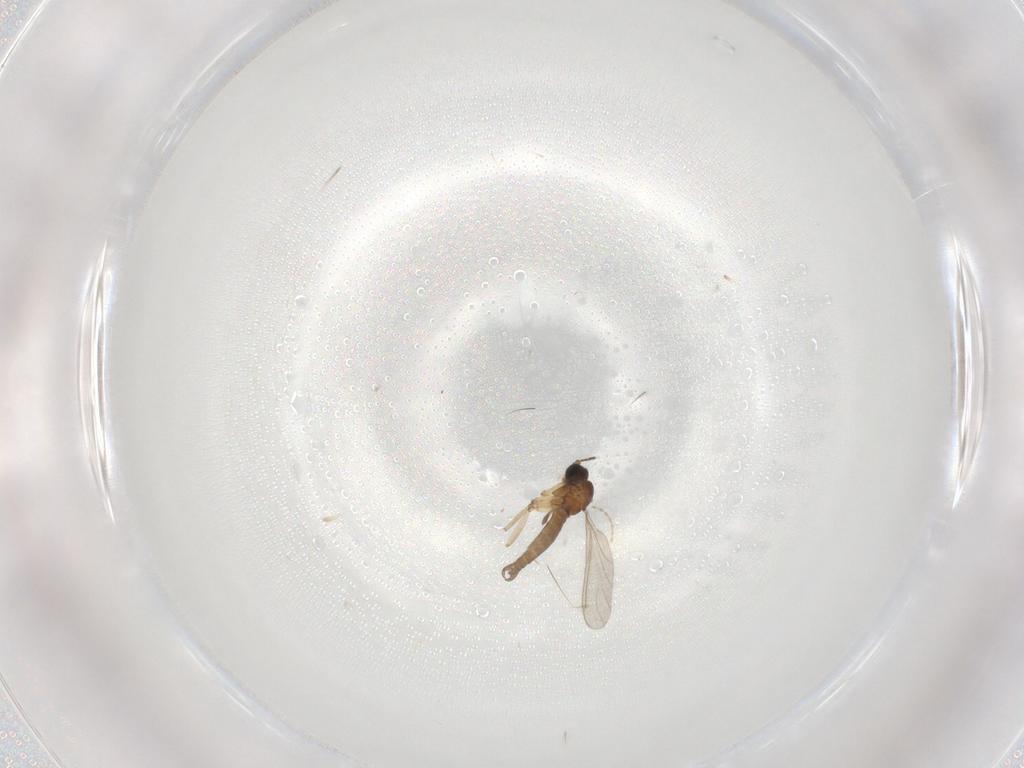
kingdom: Animalia
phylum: Arthropoda
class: Insecta
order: Diptera
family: Sciaridae
